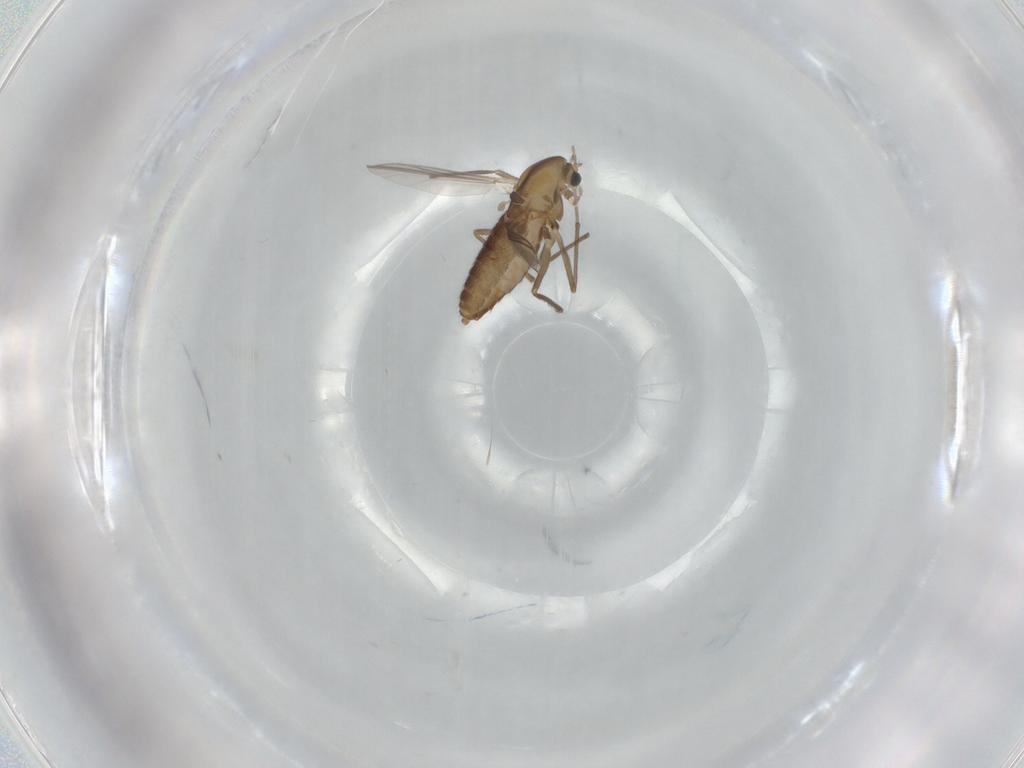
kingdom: Animalia
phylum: Arthropoda
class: Insecta
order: Diptera
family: Chironomidae
